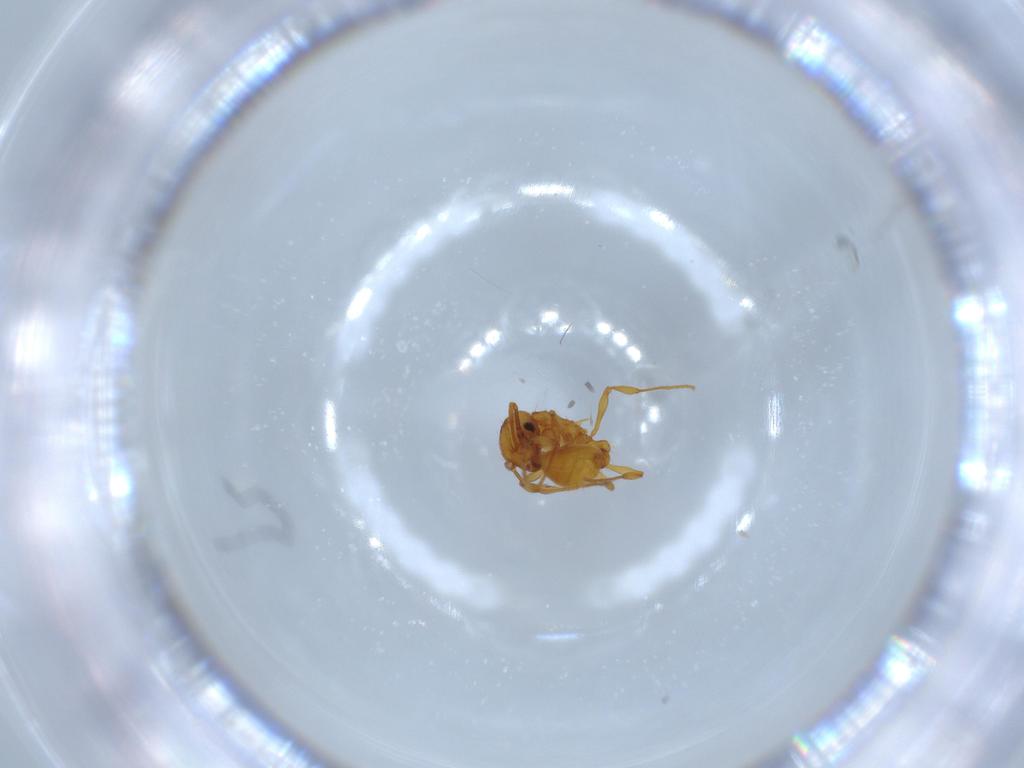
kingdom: Animalia
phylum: Arthropoda
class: Insecta
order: Hymenoptera
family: Formicidae
